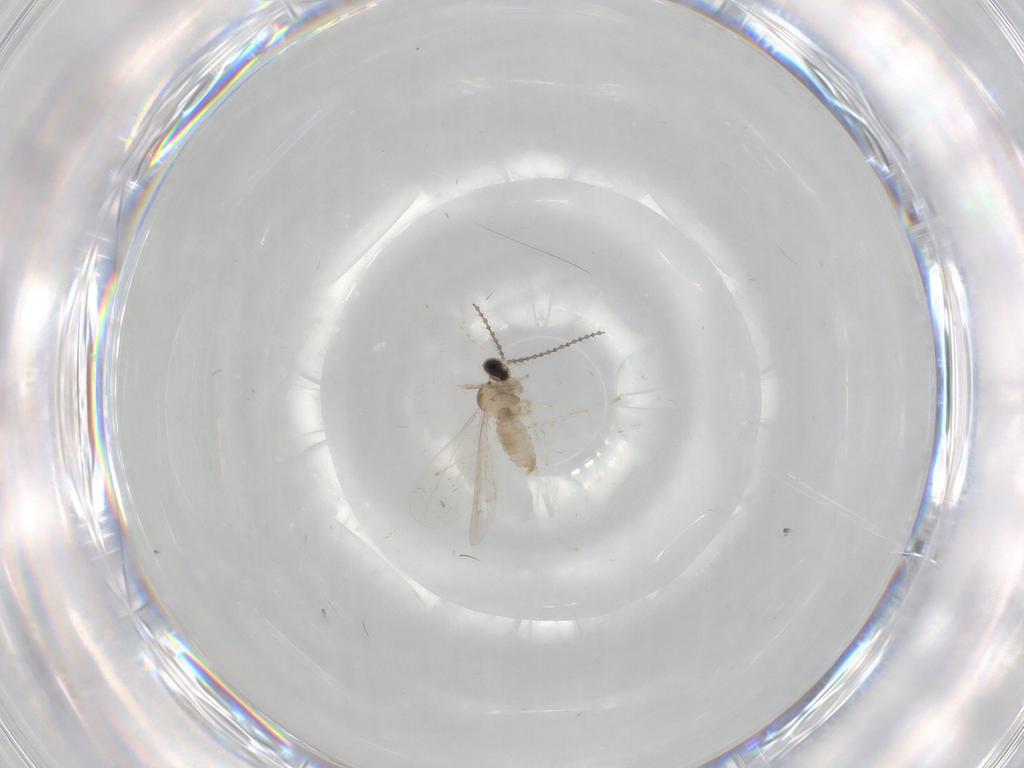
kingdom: Animalia
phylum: Arthropoda
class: Insecta
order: Diptera
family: Cecidomyiidae
